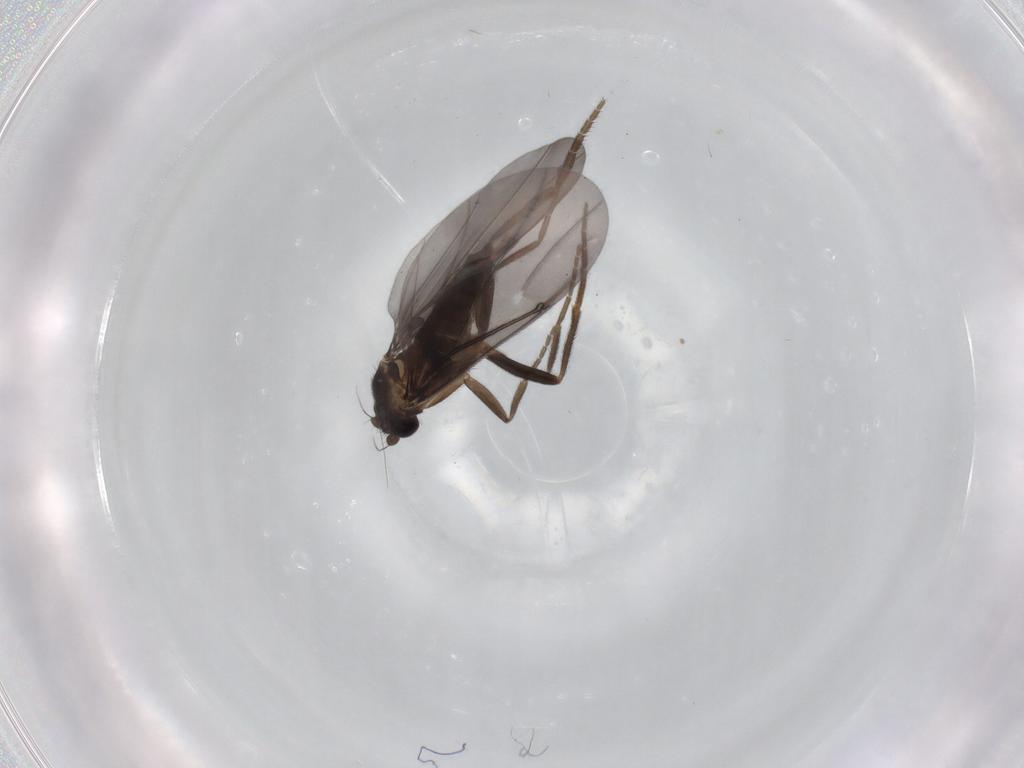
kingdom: Animalia
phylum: Arthropoda
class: Insecta
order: Diptera
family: Phoridae
